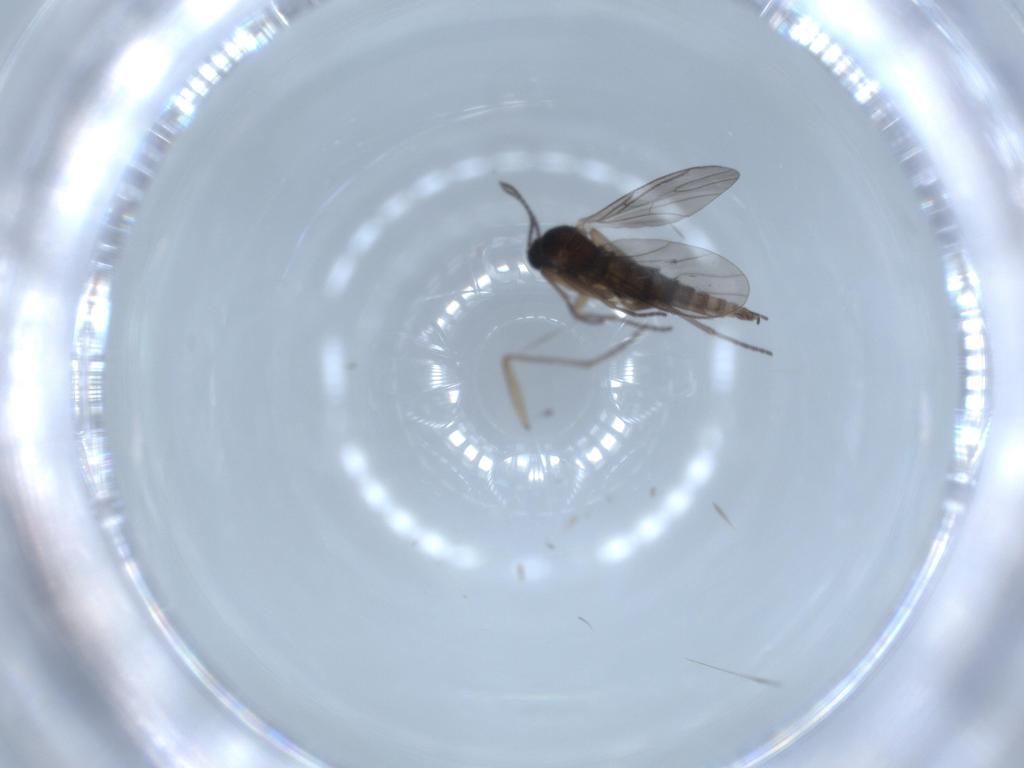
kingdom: Animalia
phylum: Arthropoda
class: Insecta
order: Diptera
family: Sciaridae
